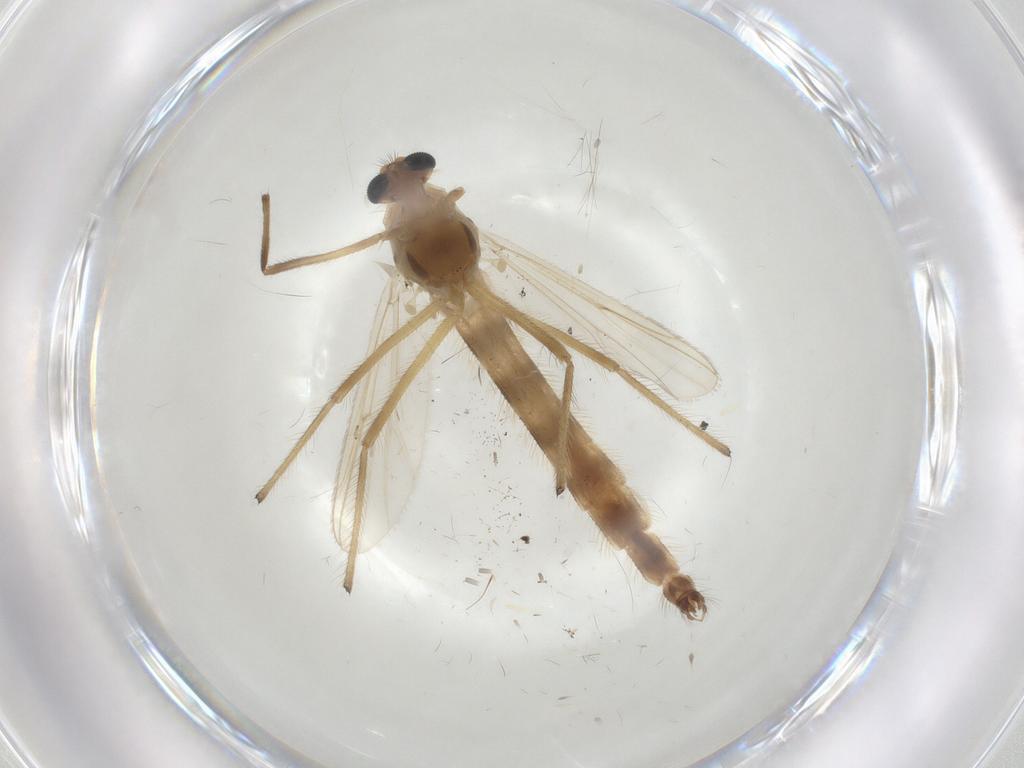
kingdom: Animalia
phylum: Arthropoda
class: Insecta
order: Diptera
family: Chironomidae
